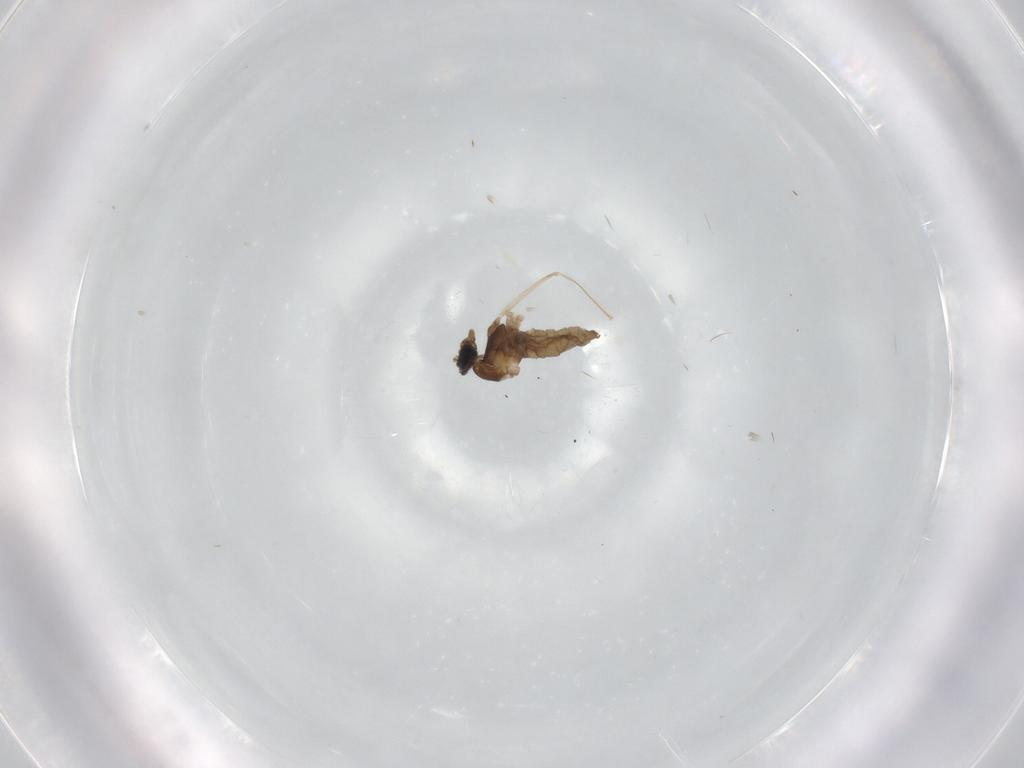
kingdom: Animalia
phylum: Arthropoda
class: Insecta
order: Diptera
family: Cecidomyiidae
